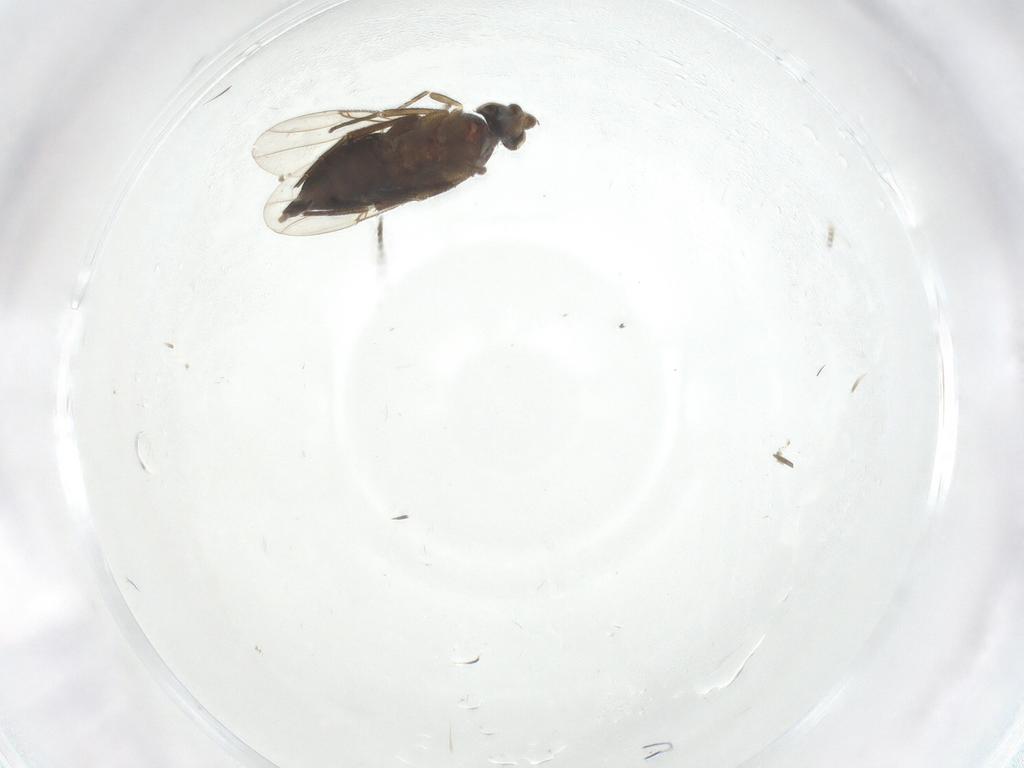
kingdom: Animalia
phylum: Arthropoda
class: Insecta
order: Diptera
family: Milichiidae
